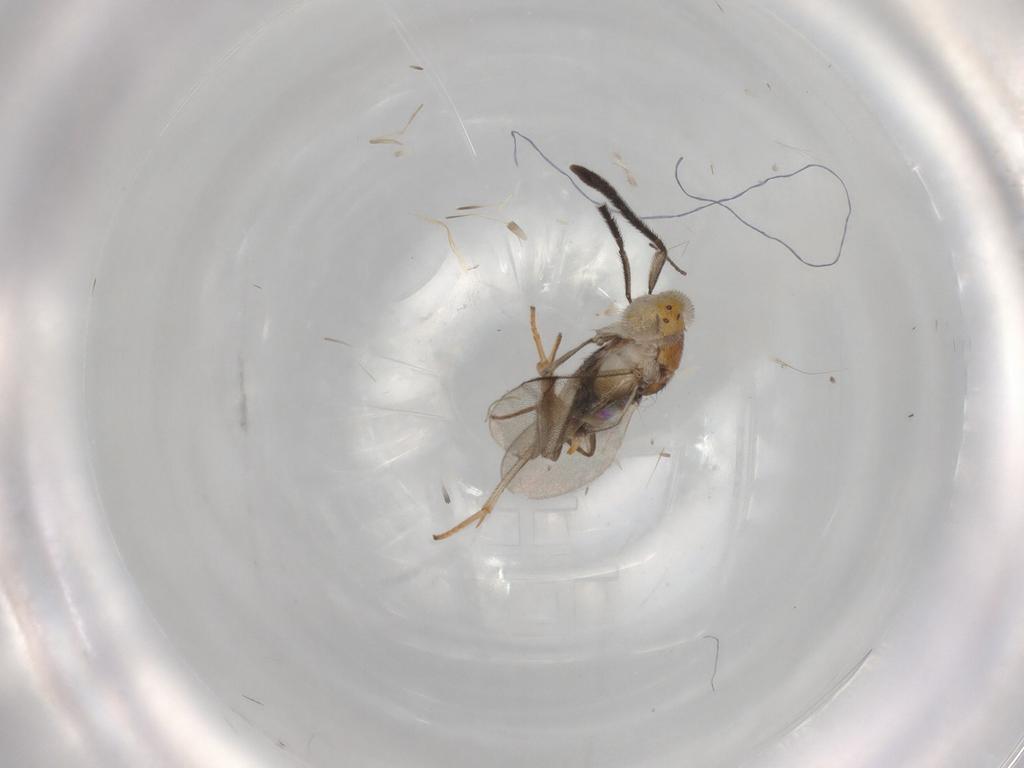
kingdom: Animalia
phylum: Arthropoda
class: Insecta
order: Hymenoptera
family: Encyrtidae
